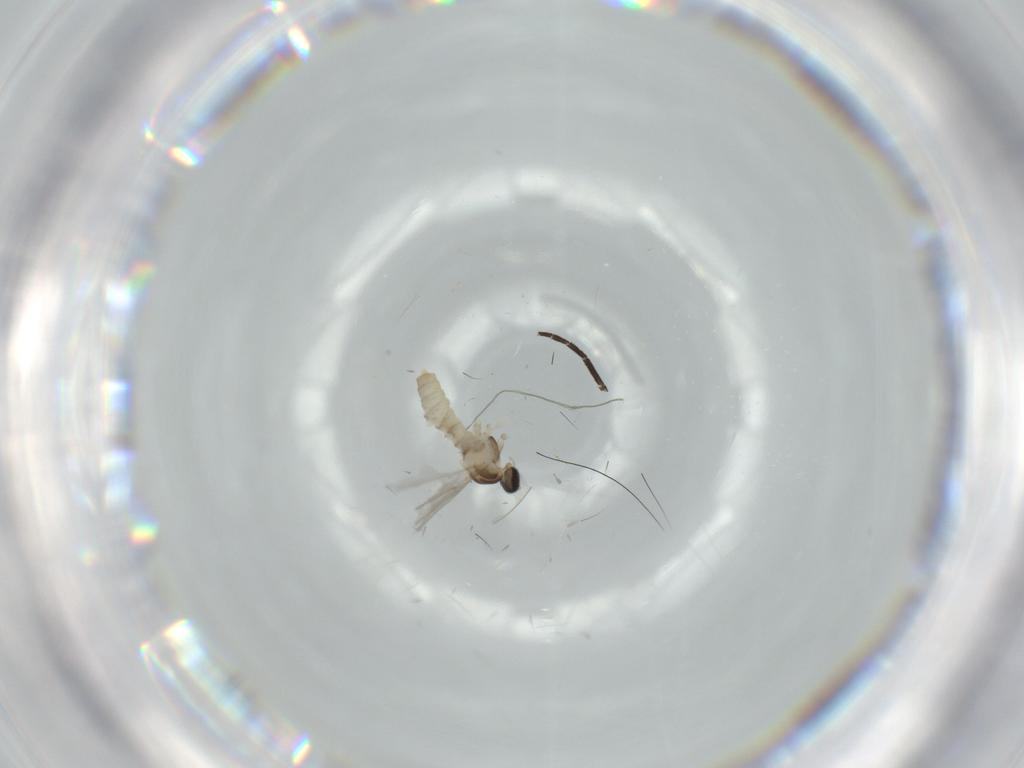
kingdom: Animalia
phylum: Arthropoda
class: Insecta
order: Diptera
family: Cecidomyiidae
